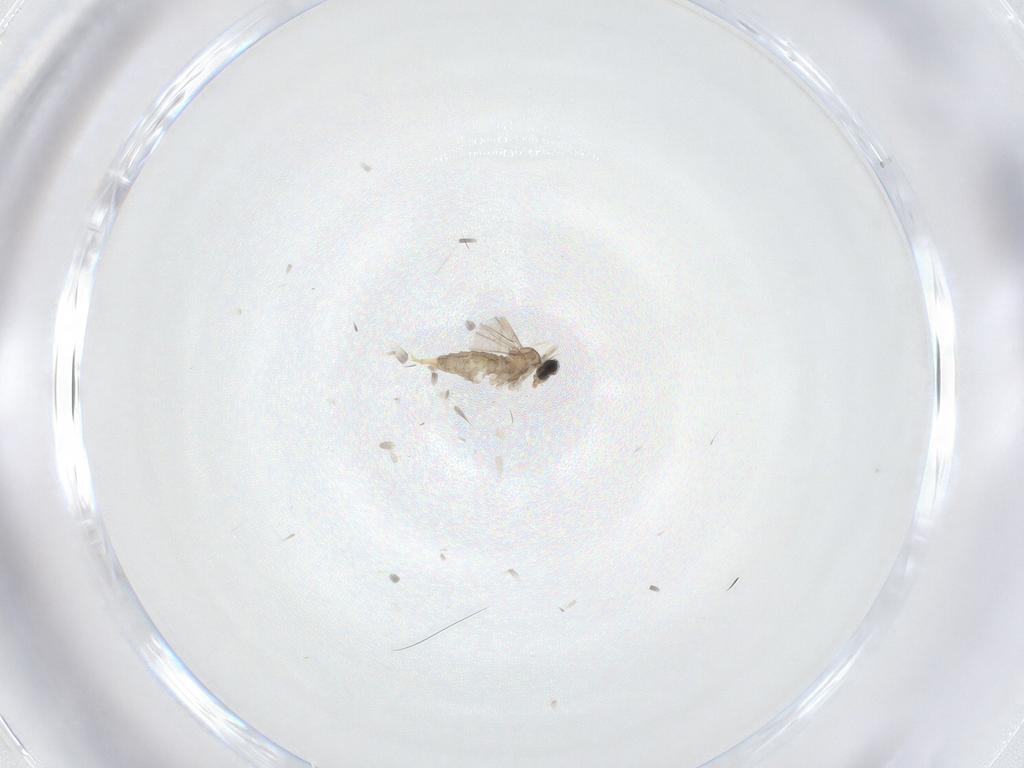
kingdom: Animalia
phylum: Arthropoda
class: Insecta
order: Diptera
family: Cecidomyiidae
